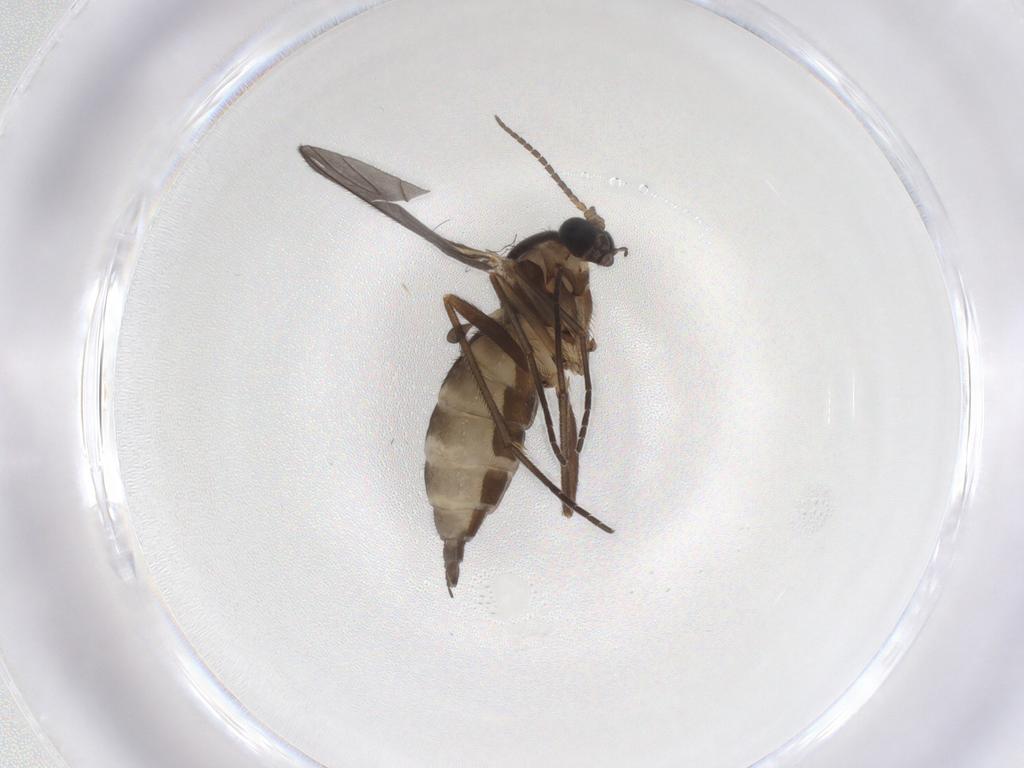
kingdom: Animalia
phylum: Arthropoda
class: Insecta
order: Diptera
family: Sciaridae
